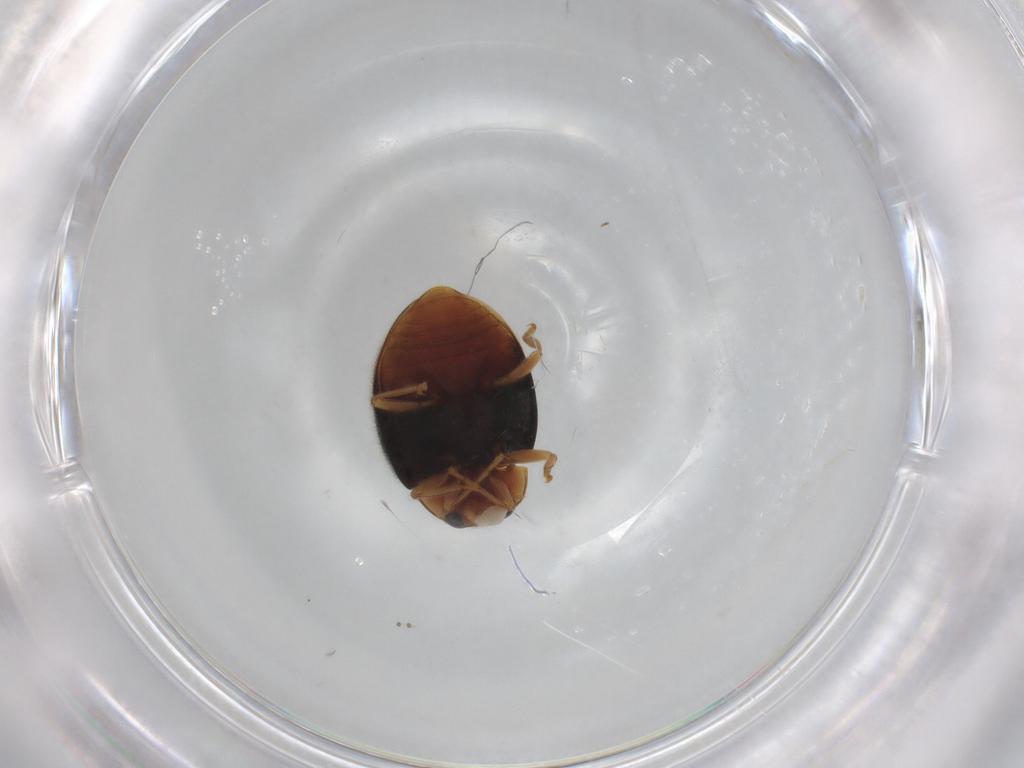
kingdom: Animalia
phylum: Arthropoda
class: Insecta
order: Coleoptera
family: Coccinellidae
